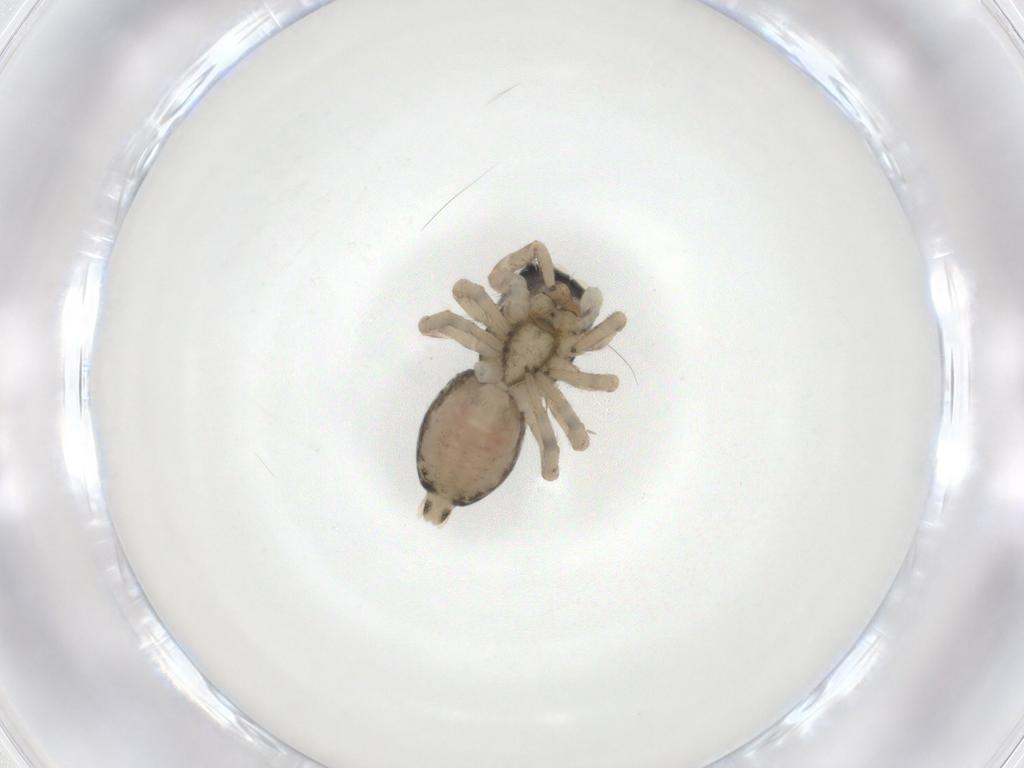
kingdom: Animalia
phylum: Arthropoda
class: Arachnida
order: Araneae
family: Salticidae
